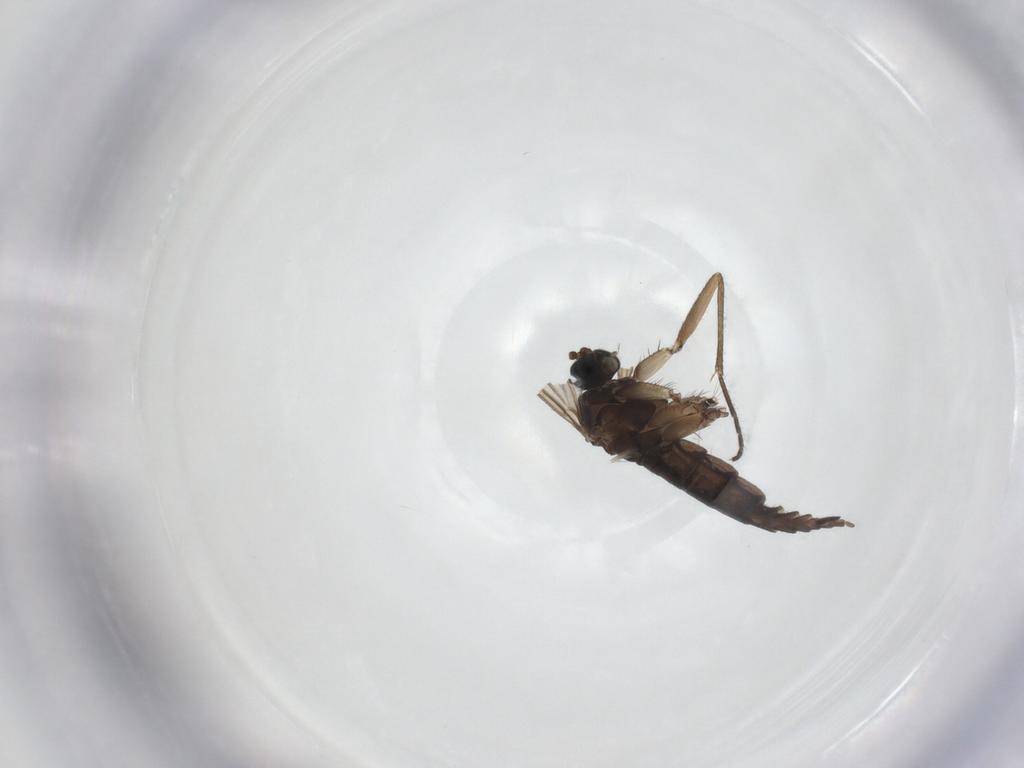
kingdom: Animalia
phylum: Arthropoda
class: Insecta
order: Diptera
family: Sciaridae
